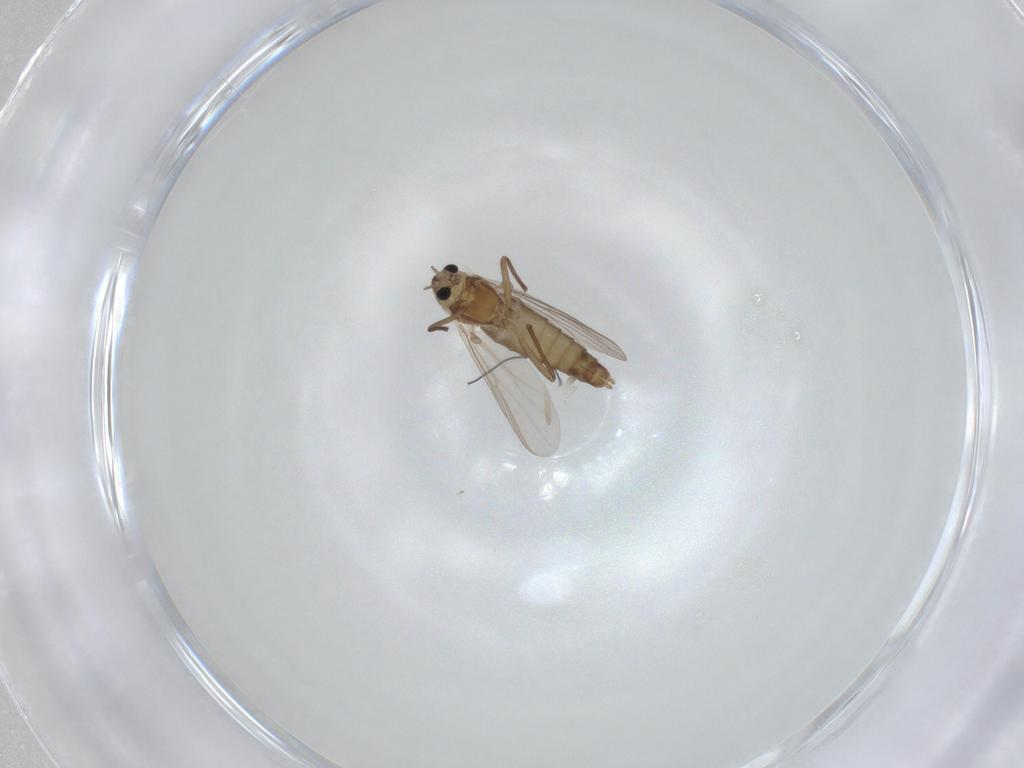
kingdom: Animalia
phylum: Arthropoda
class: Insecta
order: Diptera
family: Chironomidae
